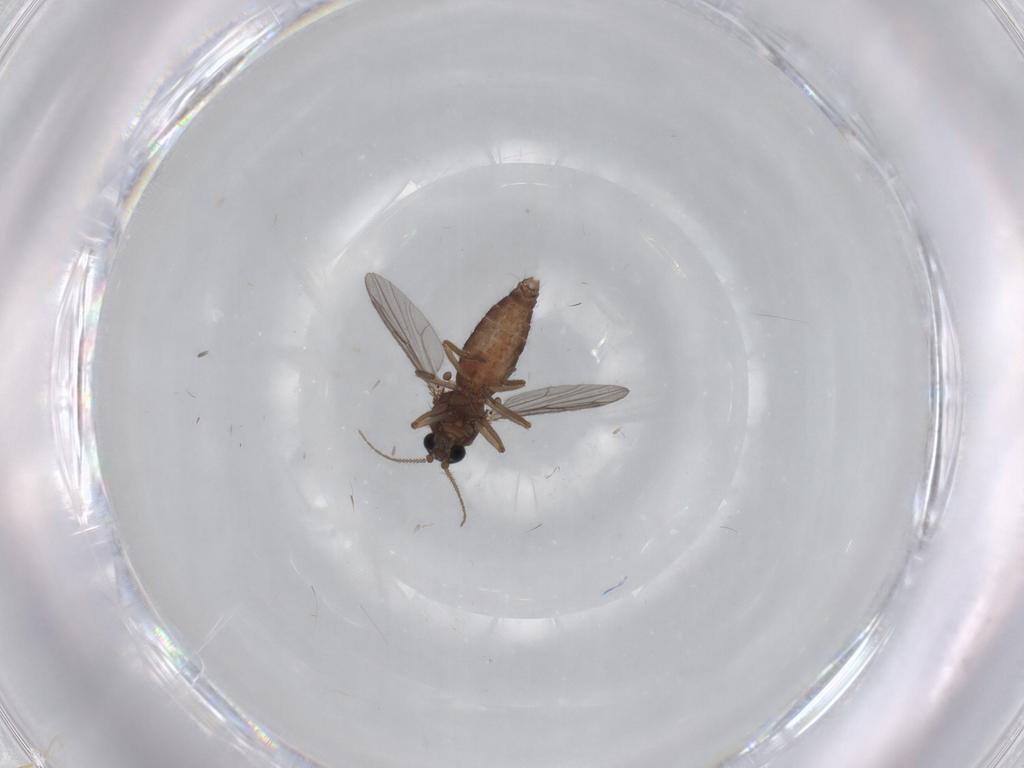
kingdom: Animalia
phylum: Arthropoda
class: Insecta
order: Diptera
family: Ceratopogonidae
